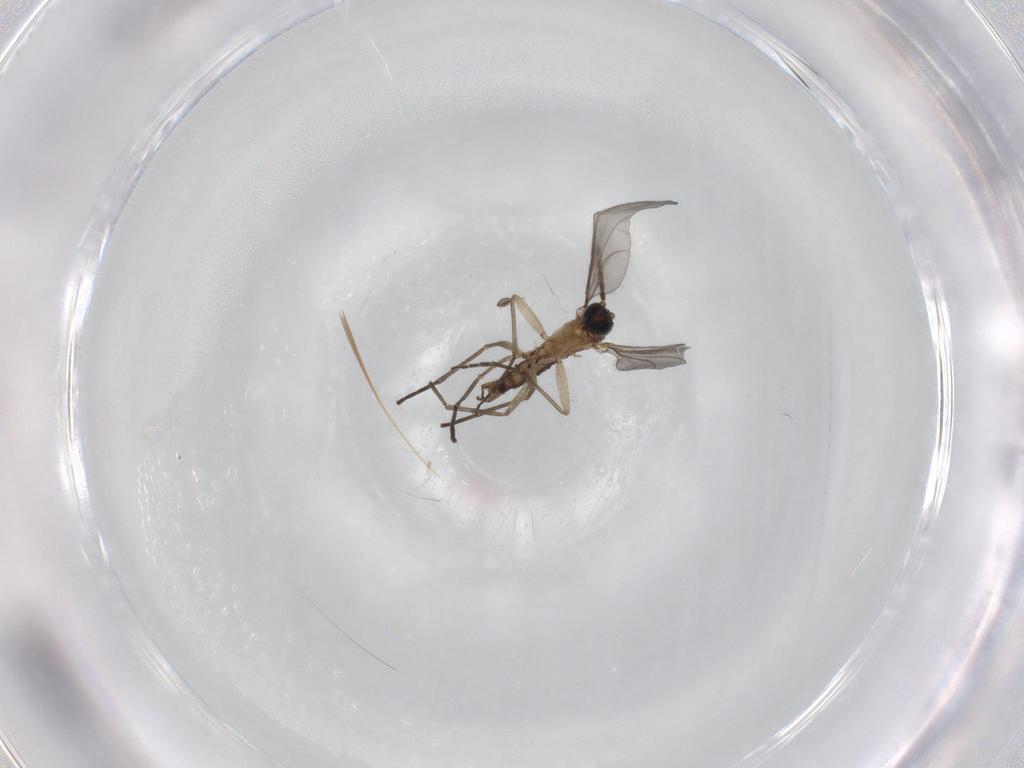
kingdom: Animalia
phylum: Arthropoda
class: Insecta
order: Diptera
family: Sciaridae
